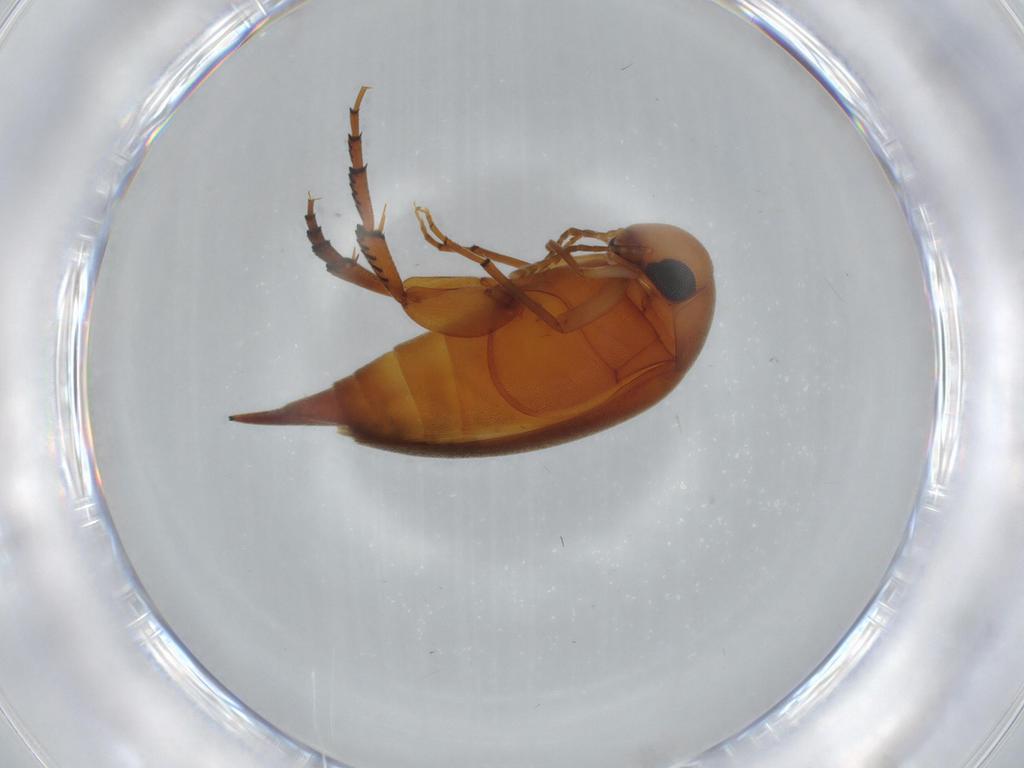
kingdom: Animalia
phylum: Arthropoda
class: Insecta
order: Coleoptera
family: Mordellidae
